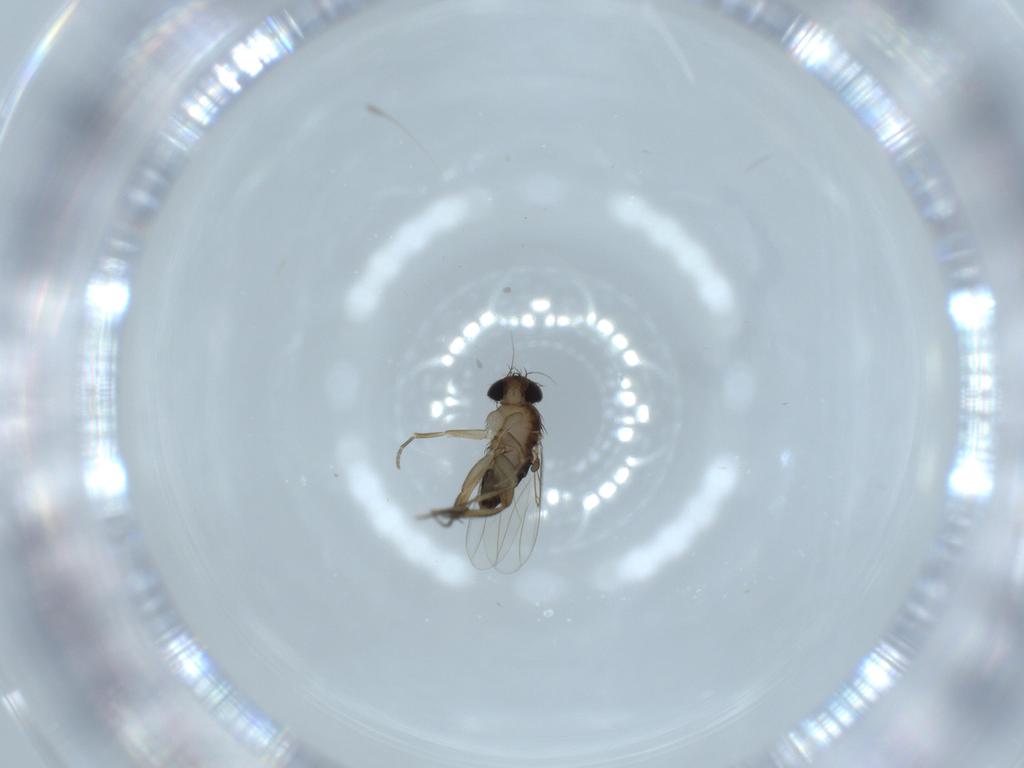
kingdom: Animalia
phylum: Arthropoda
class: Insecta
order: Diptera
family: Phoridae
